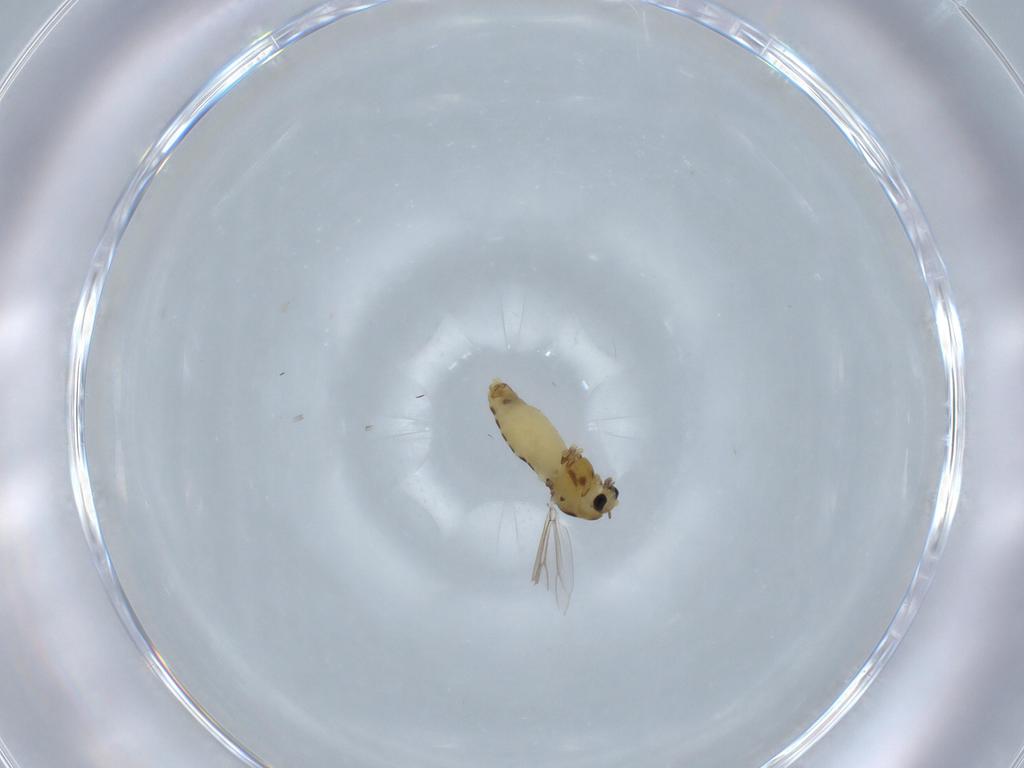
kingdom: Animalia
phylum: Arthropoda
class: Insecta
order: Diptera
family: Chironomidae
